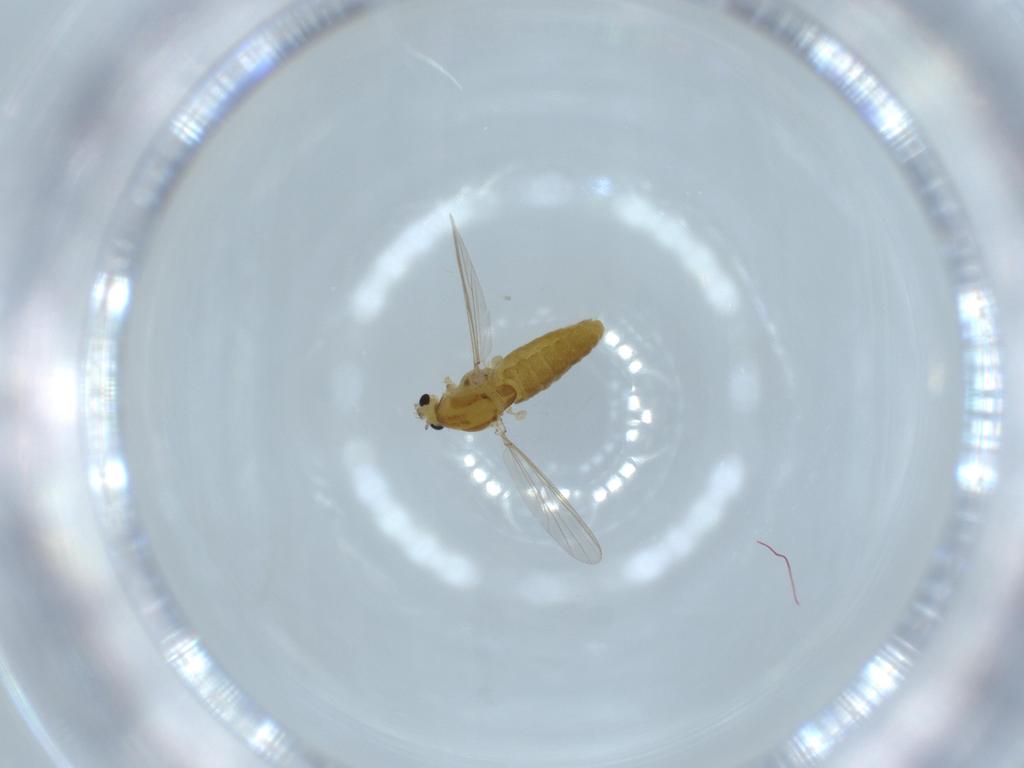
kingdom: Animalia
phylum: Arthropoda
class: Insecta
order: Diptera
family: Chironomidae
